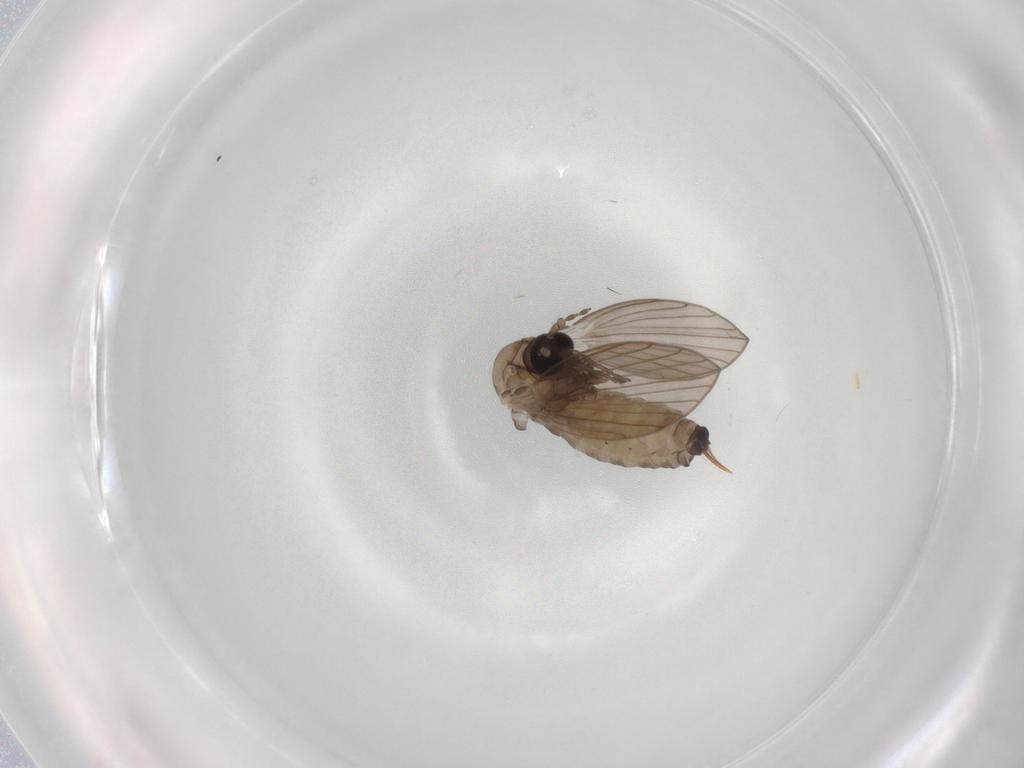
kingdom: Animalia
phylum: Arthropoda
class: Insecta
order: Diptera
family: Psychodidae
